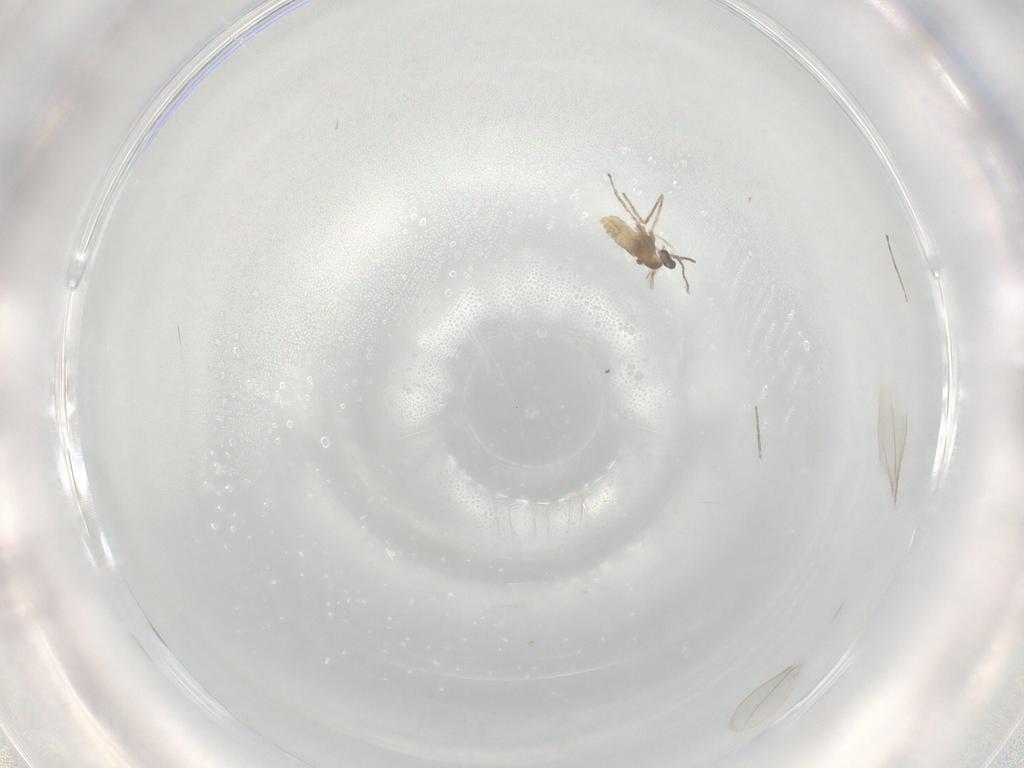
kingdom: Animalia
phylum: Arthropoda
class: Insecta
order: Diptera
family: Cecidomyiidae
